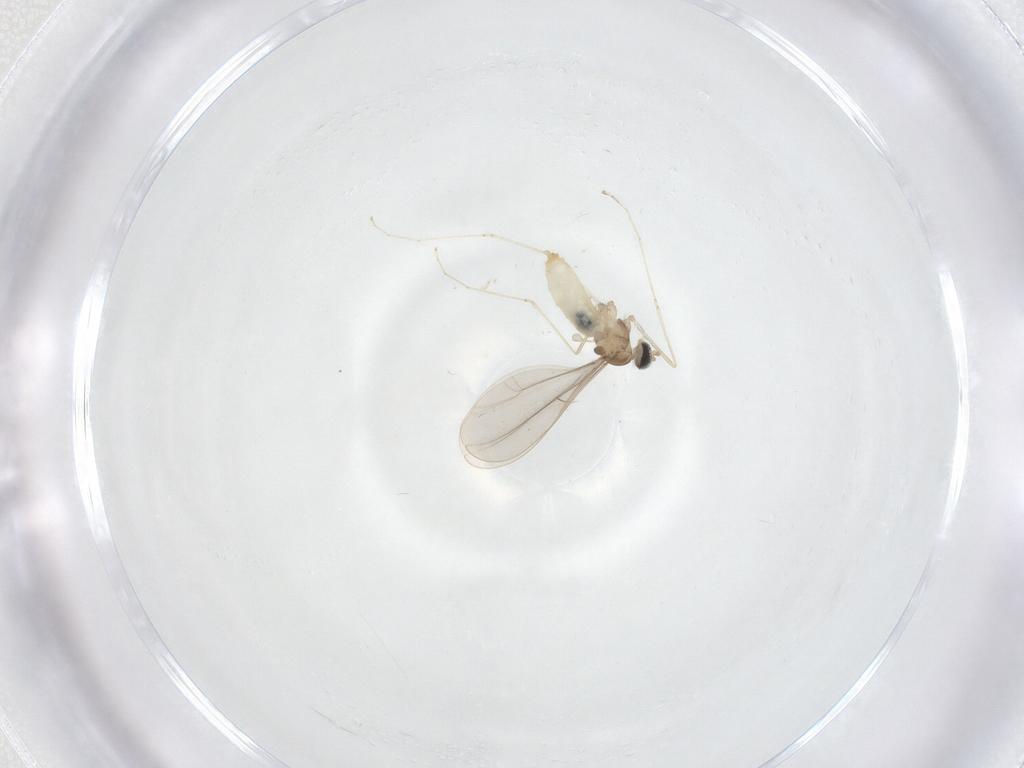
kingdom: Animalia
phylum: Arthropoda
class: Insecta
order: Diptera
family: Cecidomyiidae
